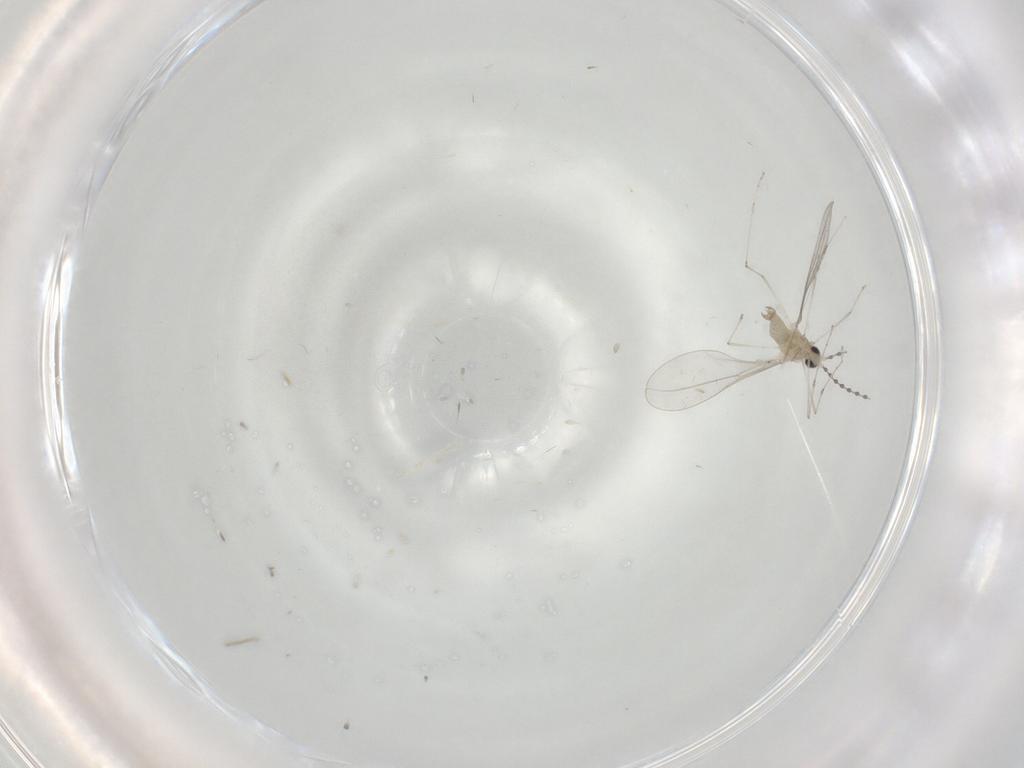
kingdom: Animalia
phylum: Arthropoda
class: Insecta
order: Diptera
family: Cecidomyiidae
